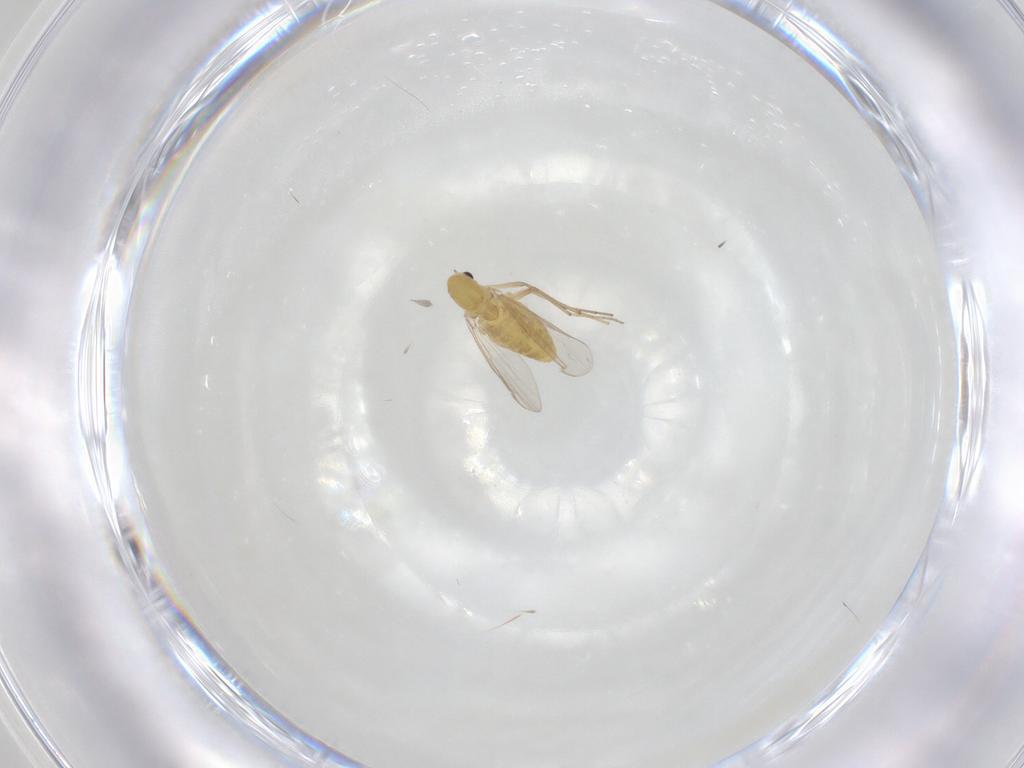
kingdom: Animalia
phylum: Arthropoda
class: Insecta
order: Diptera
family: Chironomidae
